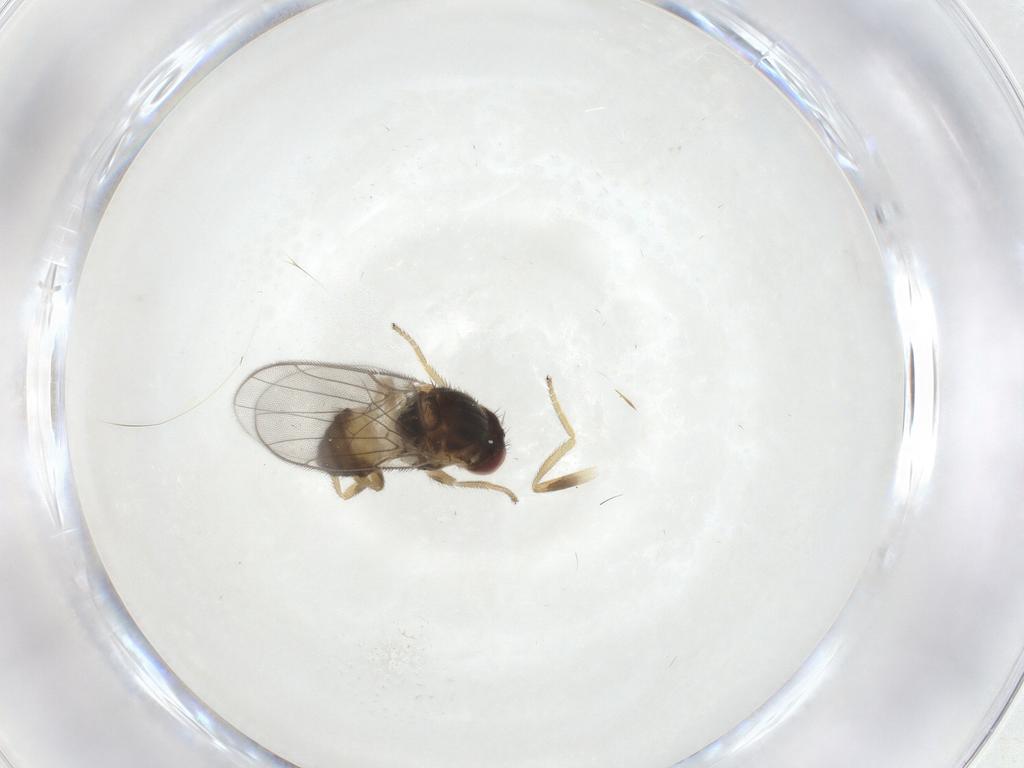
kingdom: Animalia
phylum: Arthropoda
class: Insecta
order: Diptera
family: Chloropidae
